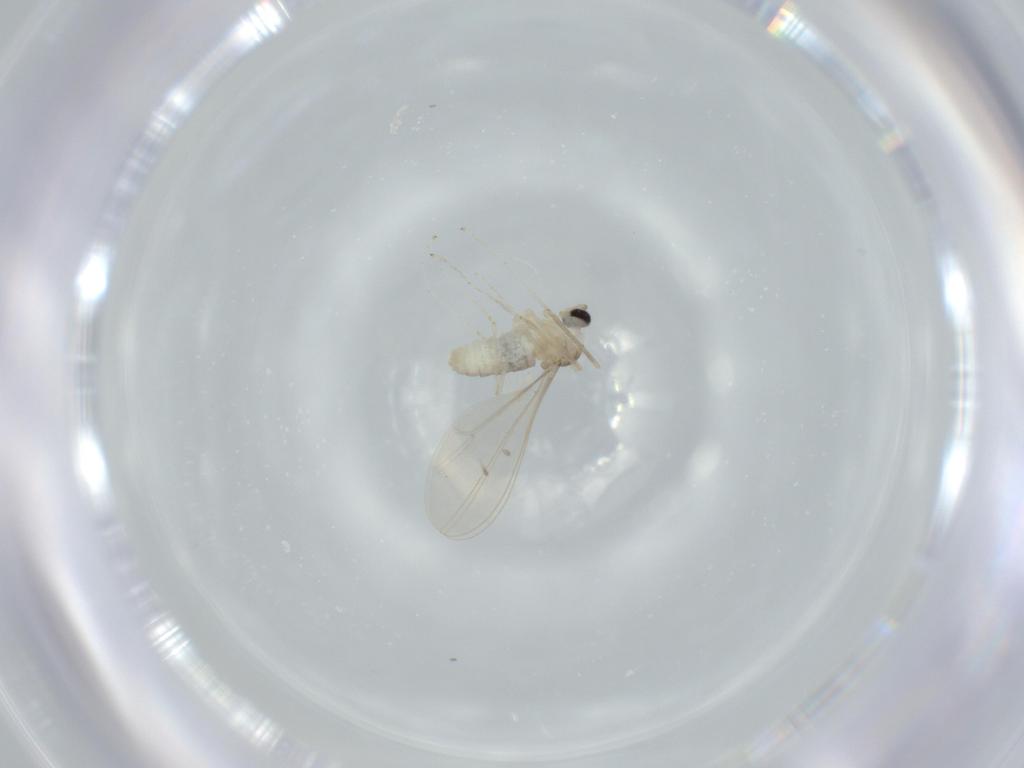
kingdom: Animalia
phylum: Arthropoda
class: Insecta
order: Diptera
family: Cecidomyiidae
